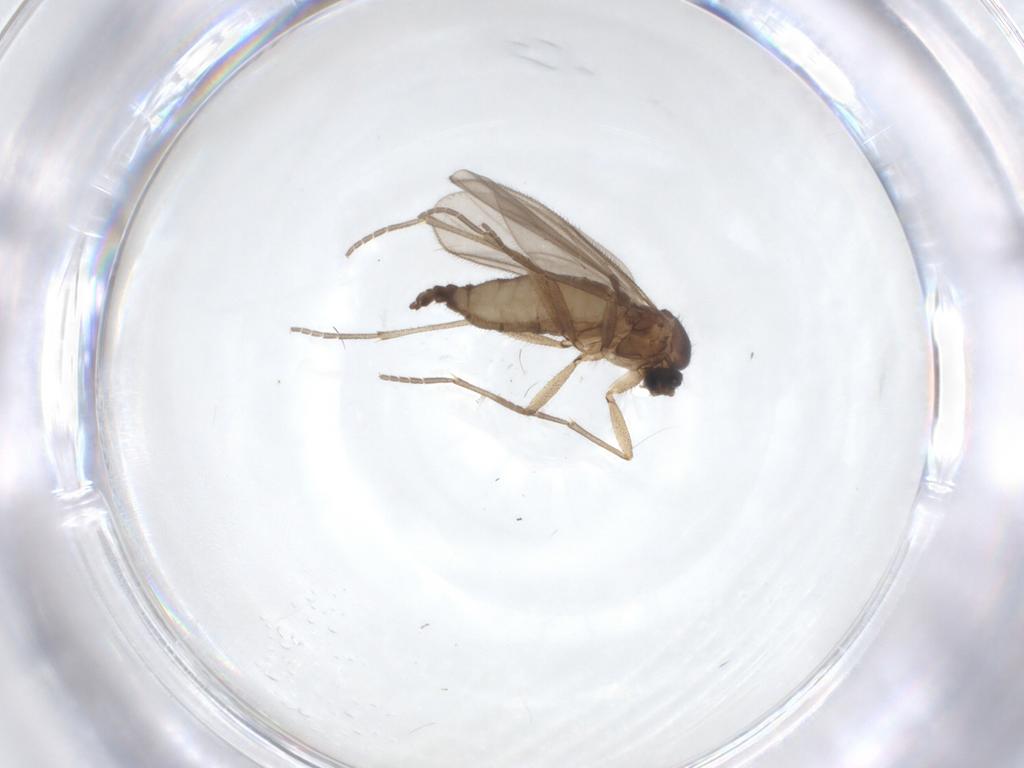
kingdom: Animalia
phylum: Arthropoda
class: Insecta
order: Diptera
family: Sciaridae
